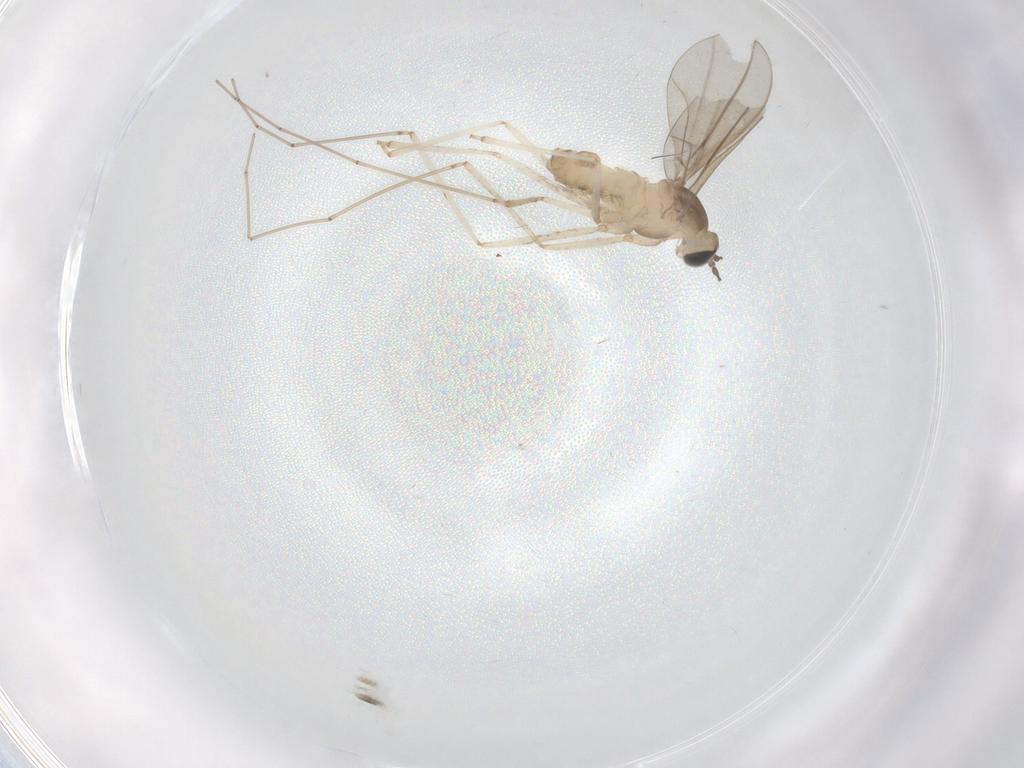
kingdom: Animalia
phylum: Arthropoda
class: Insecta
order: Diptera
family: Cecidomyiidae
